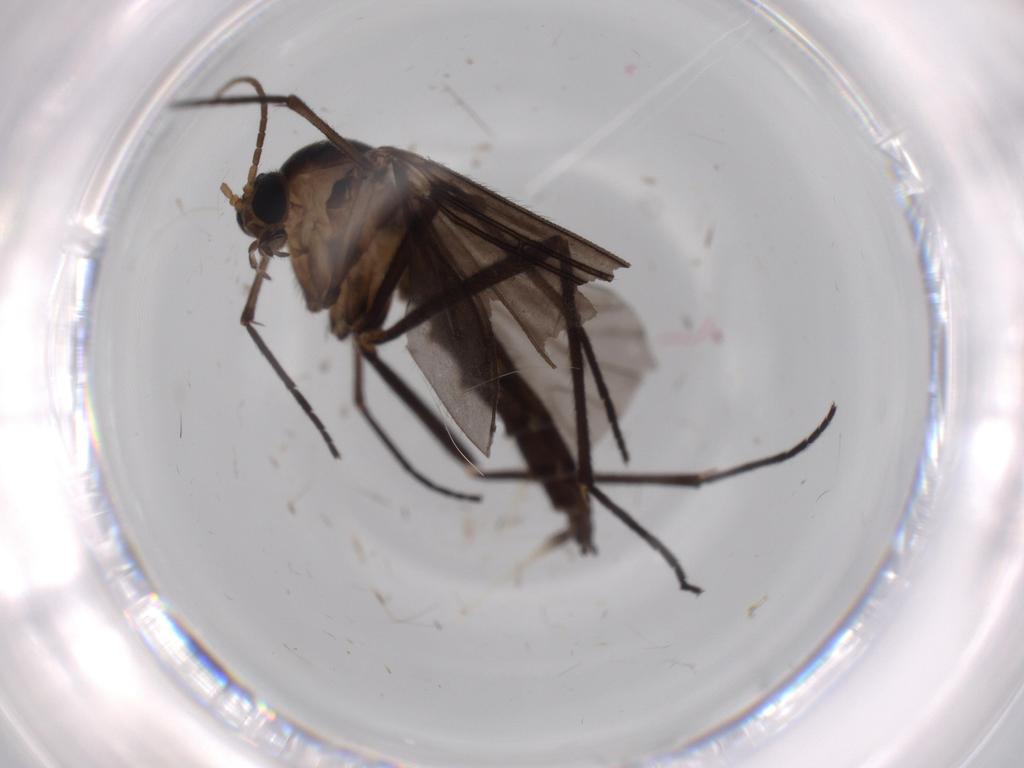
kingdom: Animalia
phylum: Arthropoda
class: Insecta
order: Diptera
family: Sciaridae
